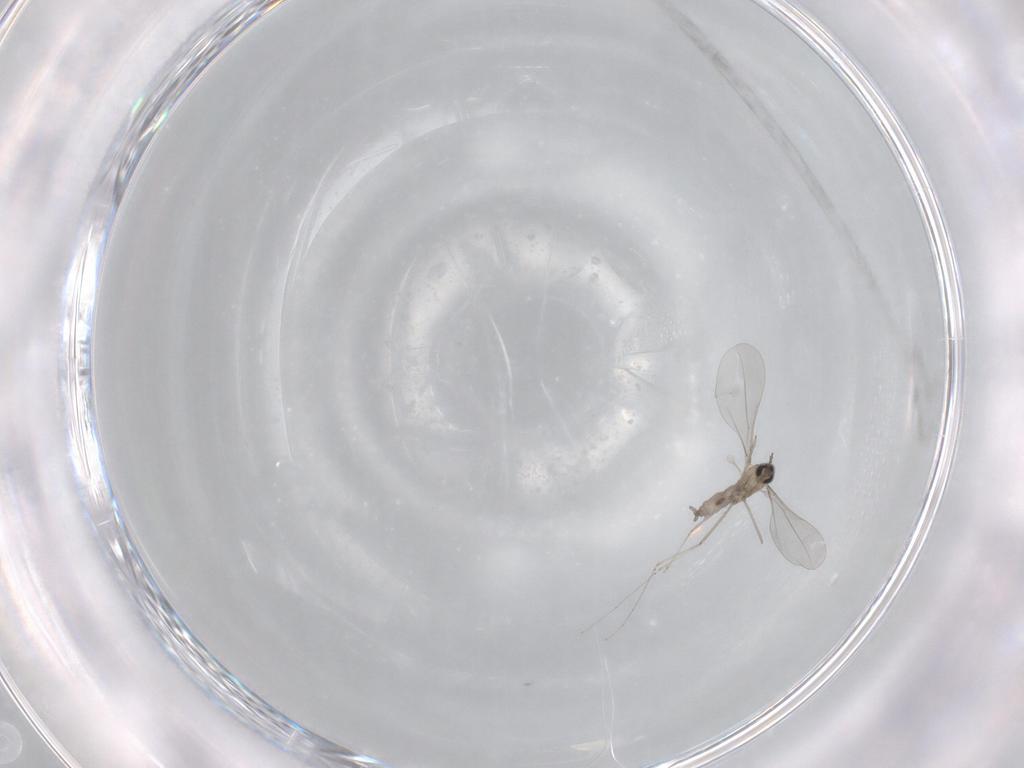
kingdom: Animalia
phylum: Arthropoda
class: Insecta
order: Diptera
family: Cecidomyiidae
